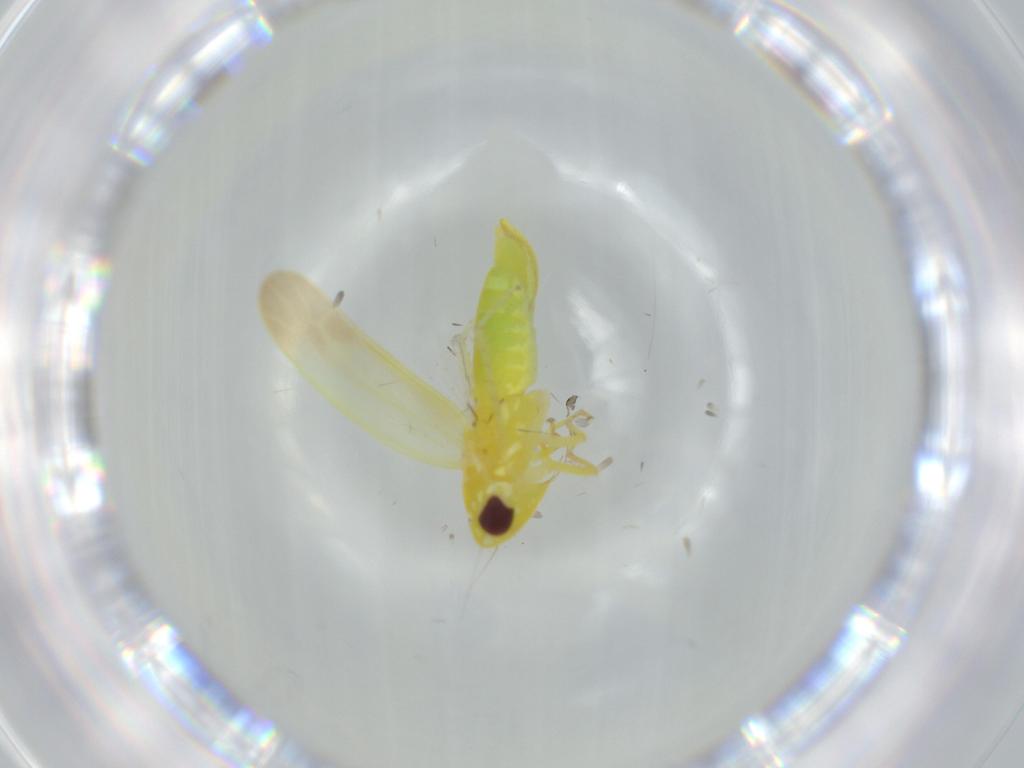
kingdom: Animalia
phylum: Arthropoda
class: Insecta
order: Hemiptera
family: Cicadellidae
